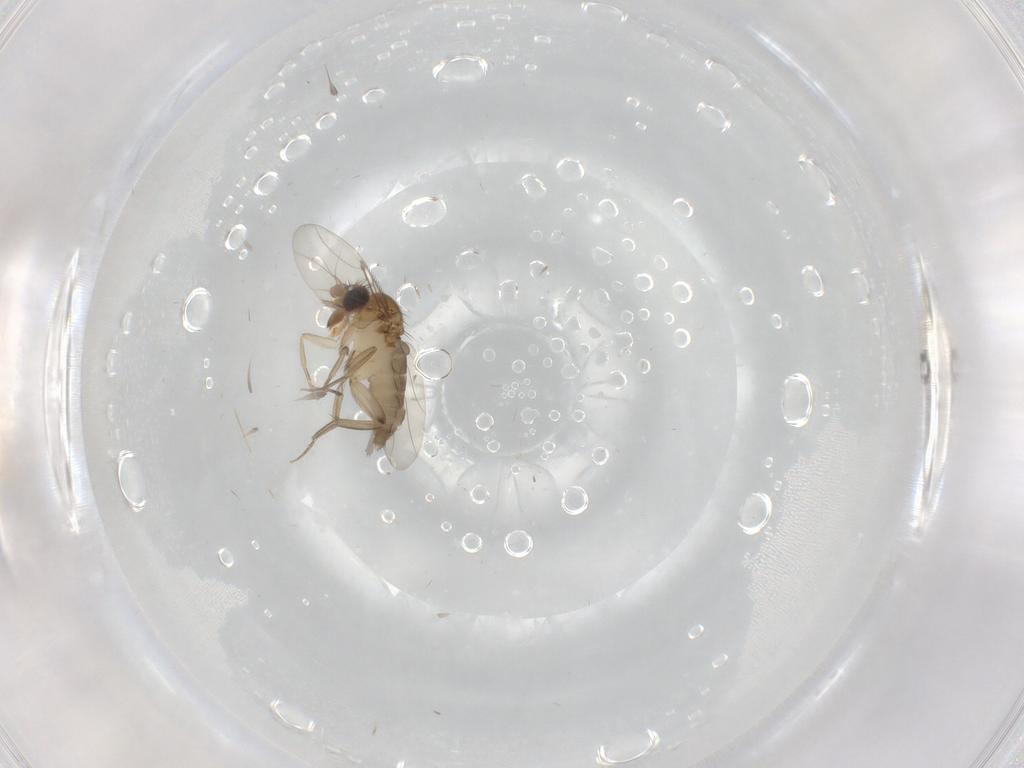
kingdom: Animalia
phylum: Arthropoda
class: Insecta
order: Diptera
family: Phoridae
